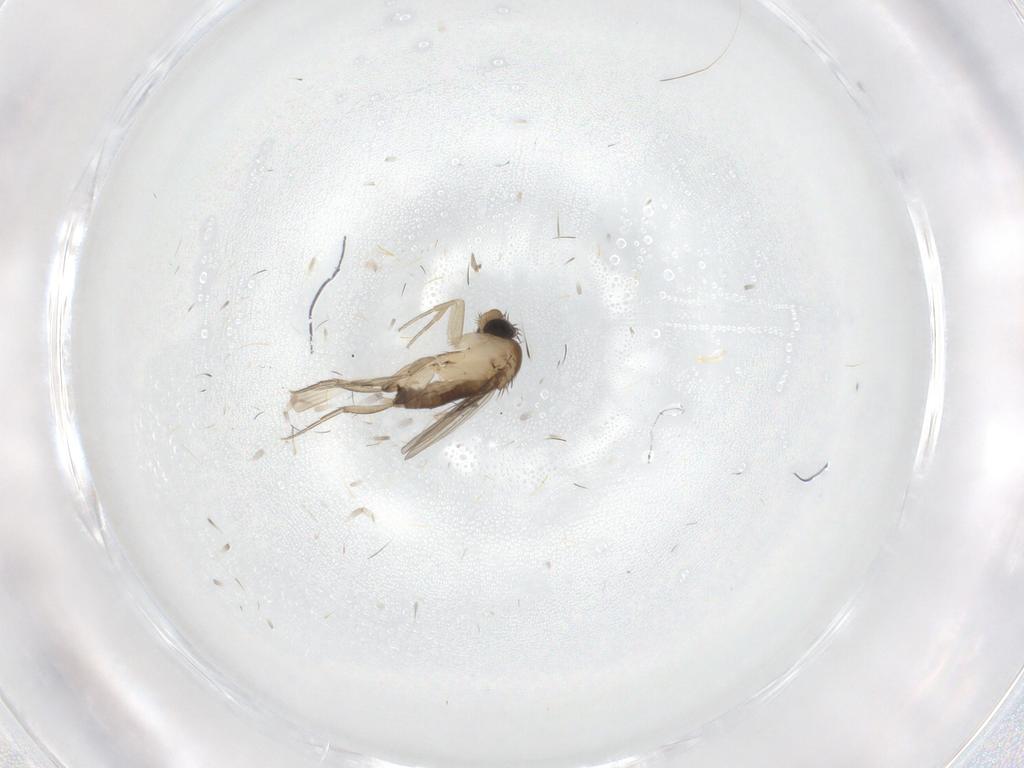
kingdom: Animalia
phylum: Arthropoda
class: Insecta
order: Diptera
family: Phoridae
